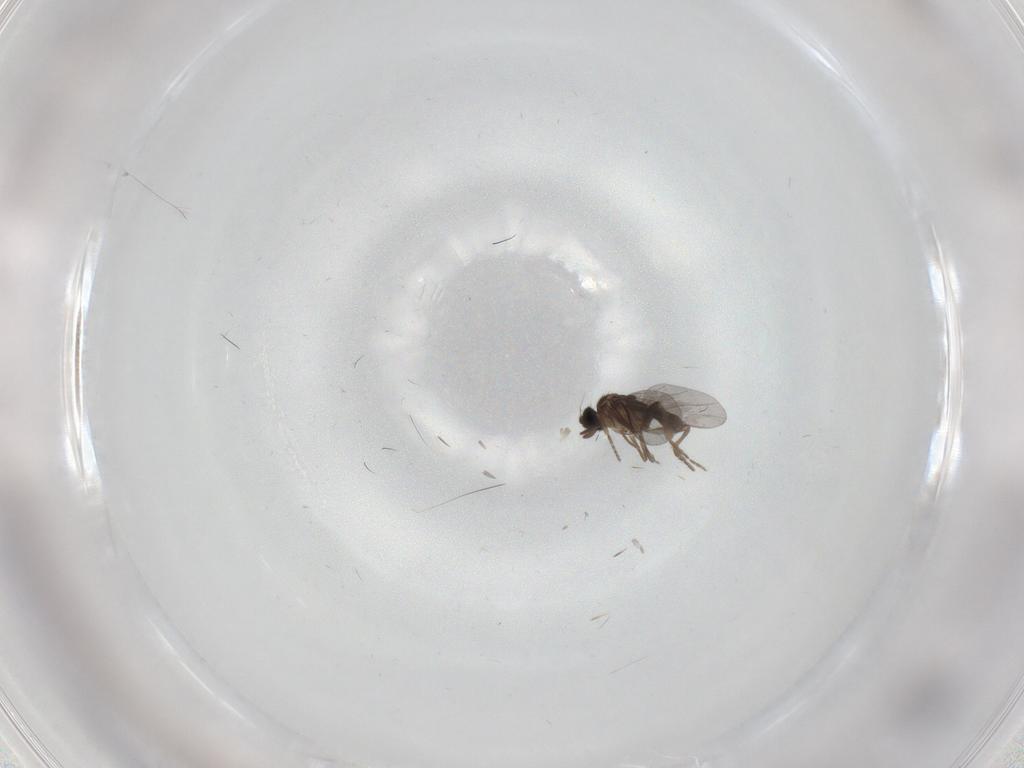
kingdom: Animalia
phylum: Arthropoda
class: Insecta
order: Diptera
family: Cecidomyiidae
